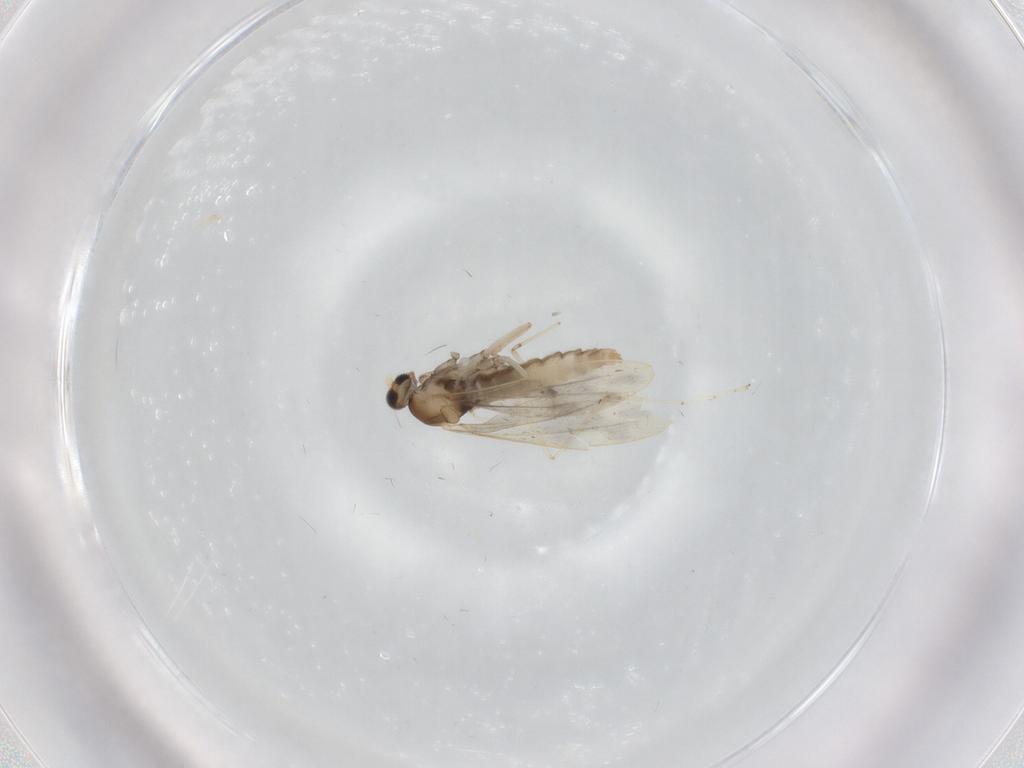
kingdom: Animalia
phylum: Arthropoda
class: Insecta
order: Diptera
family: Cecidomyiidae
